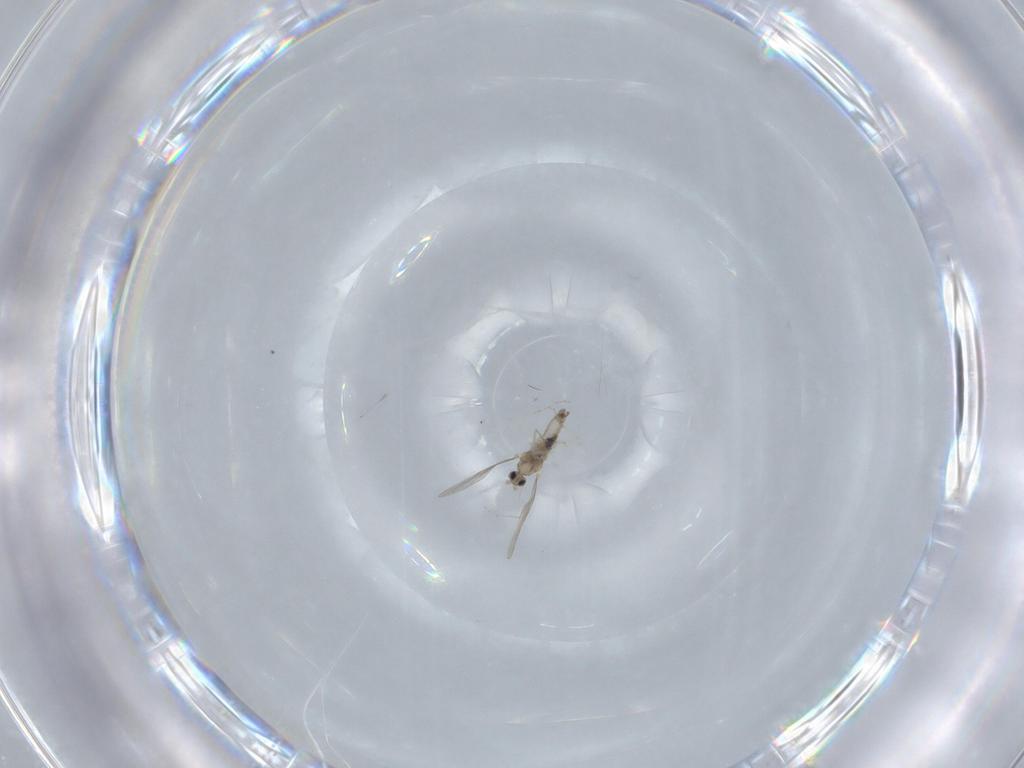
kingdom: Animalia
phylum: Arthropoda
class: Insecta
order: Diptera
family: Cecidomyiidae
